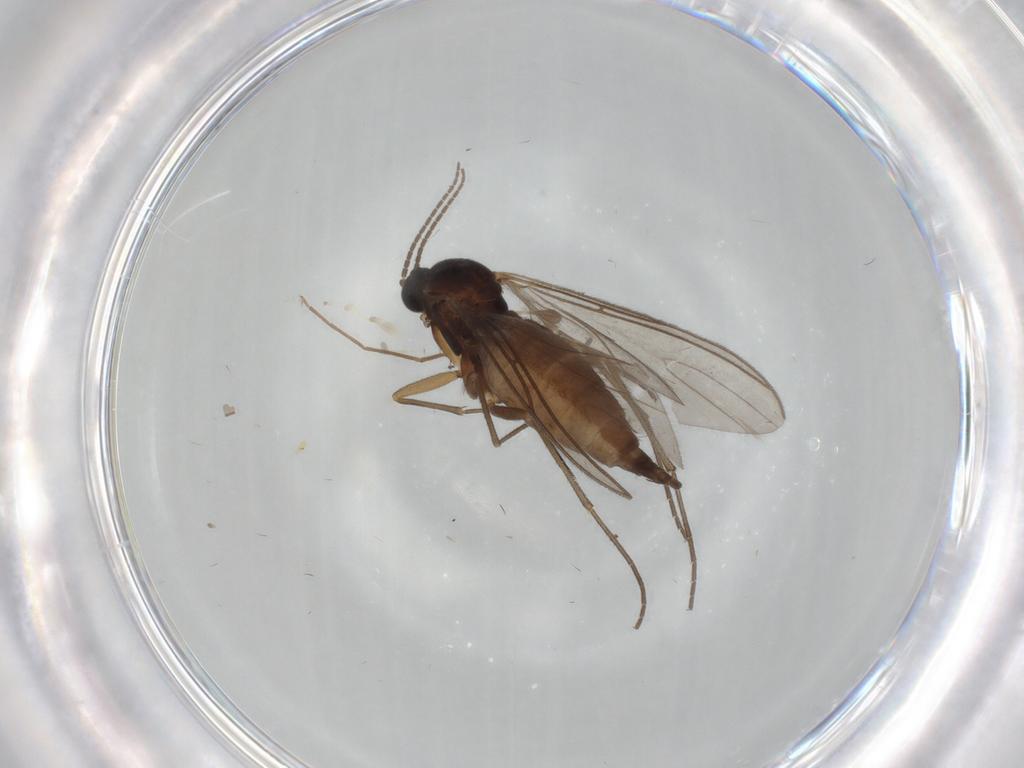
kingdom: Animalia
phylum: Arthropoda
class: Insecta
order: Diptera
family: Sciaridae
